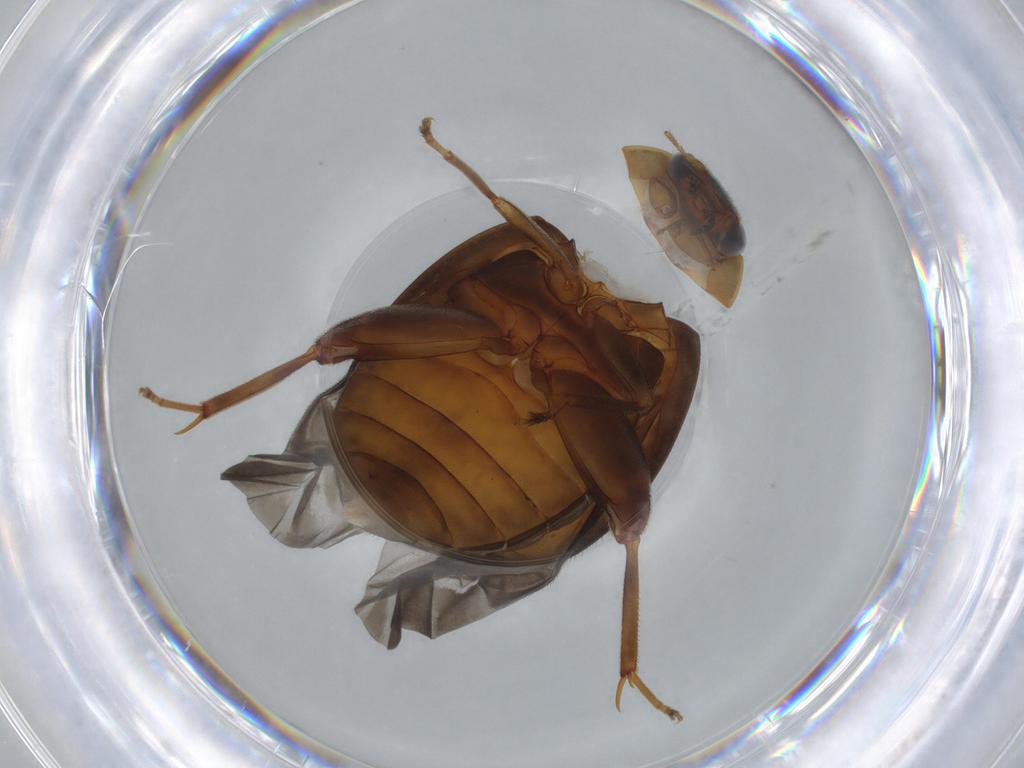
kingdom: Animalia
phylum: Arthropoda
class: Insecta
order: Coleoptera
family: Scirtidae
